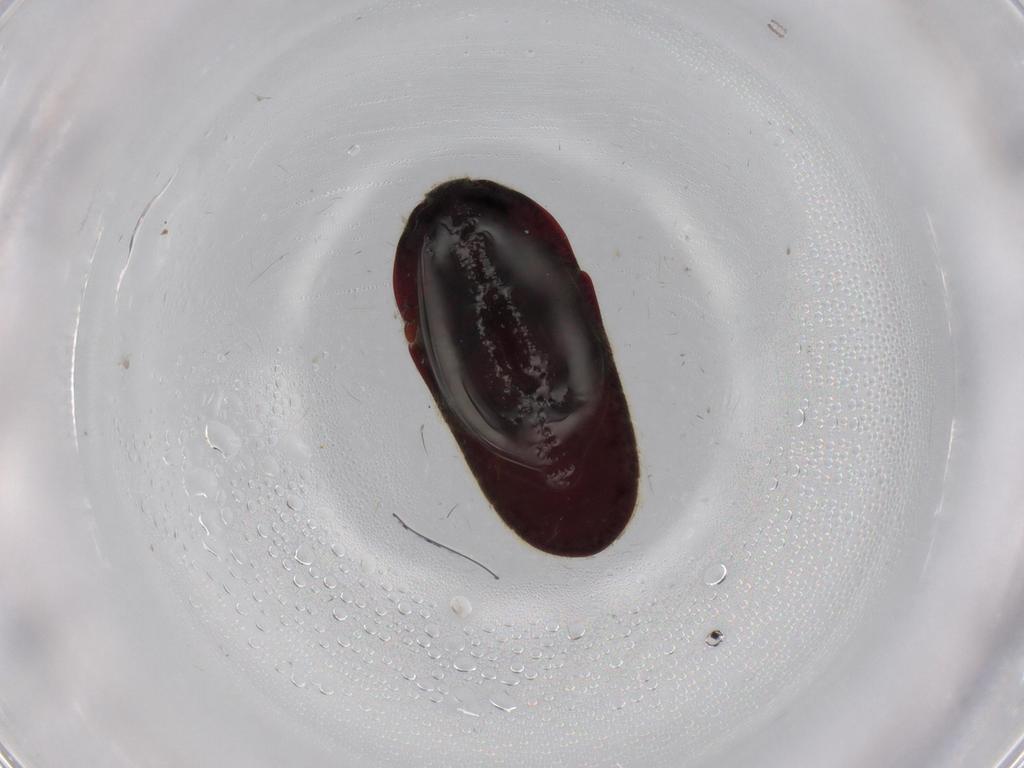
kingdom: Animalia
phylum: Arthropoda
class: Insecta
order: Coleoptera
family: Throscidae
